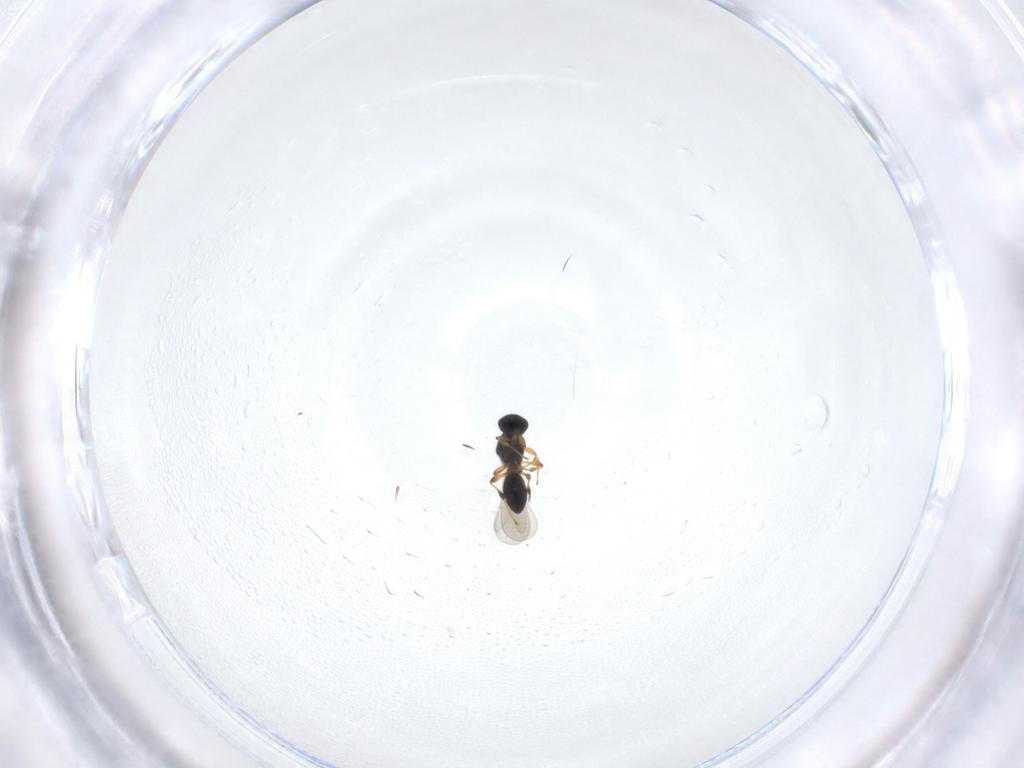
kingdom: Animalia
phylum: Arthropoda
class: Insecta
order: Hymenoptera
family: Platygastridae
